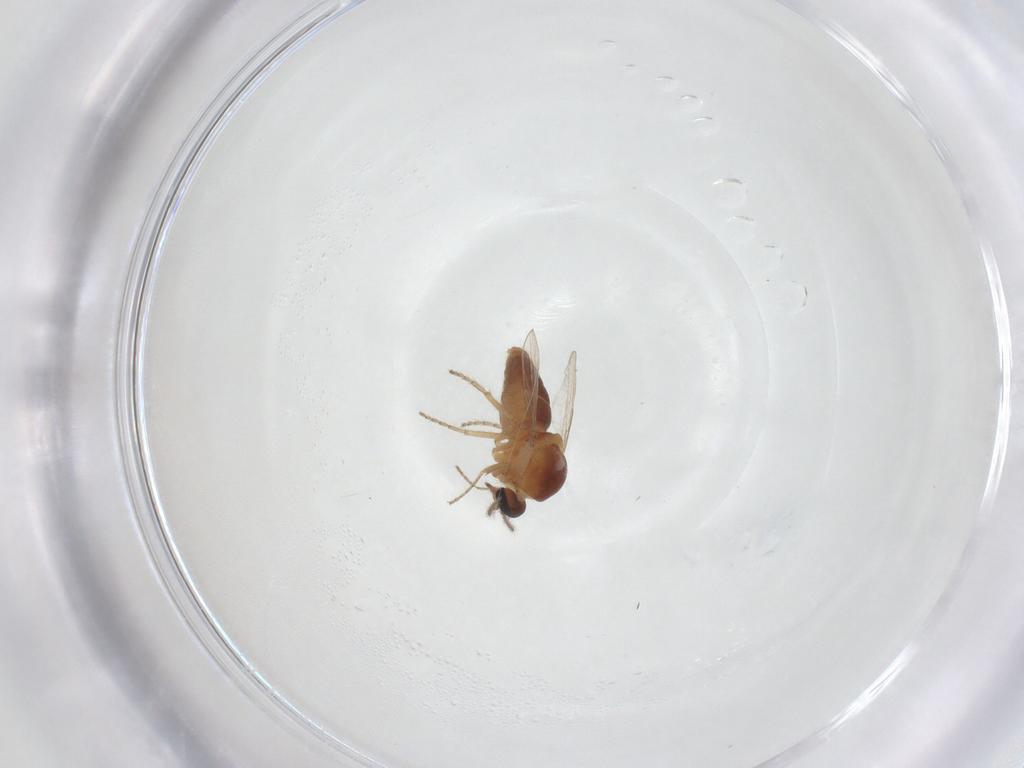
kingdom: Animalia
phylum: Arthropoda
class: Insecta
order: Diptera
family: Ceratopogonidae
